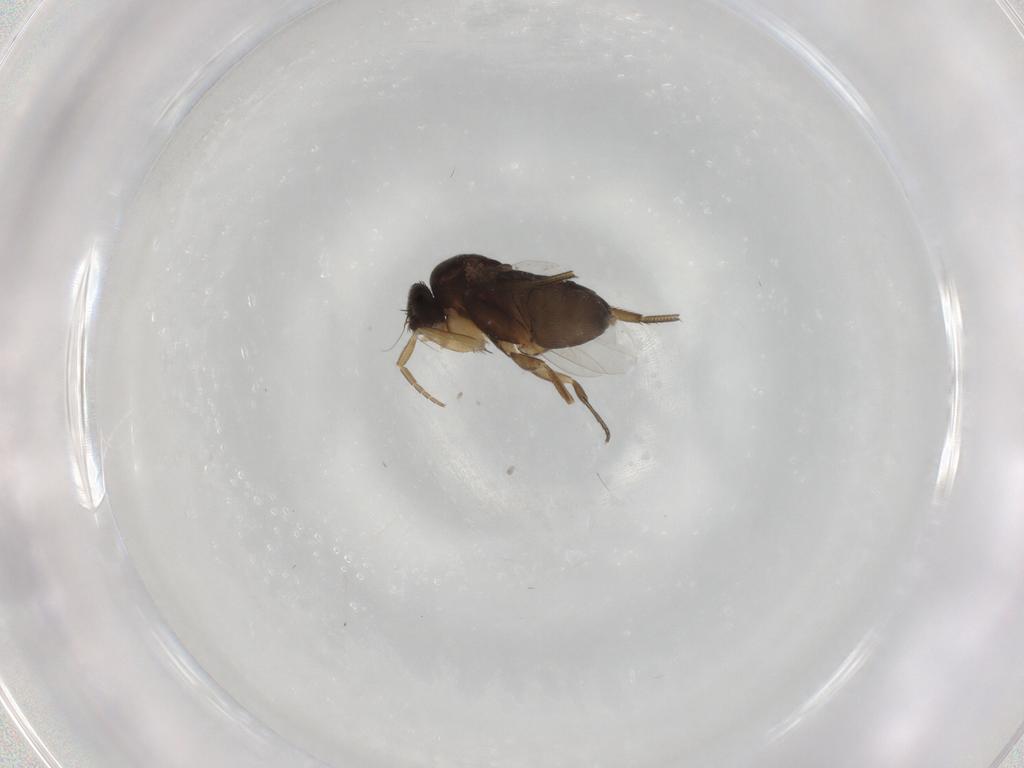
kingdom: Animalia
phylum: Arthropoda
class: Insecta
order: Diptera
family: Phoridae
